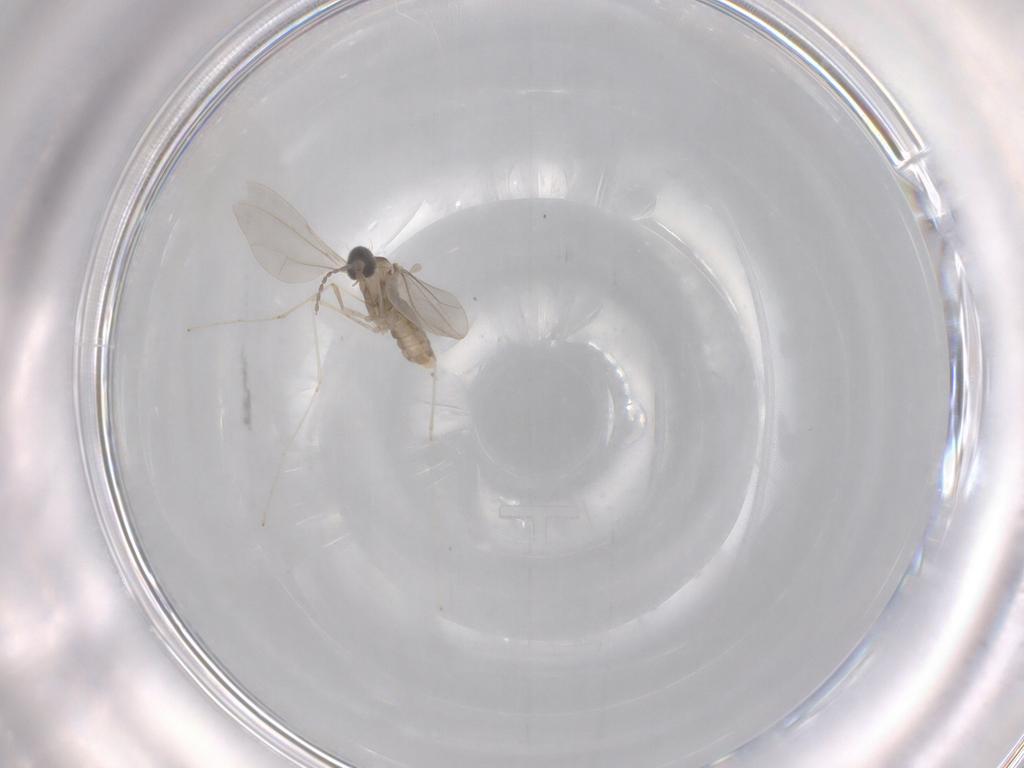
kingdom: Animalia
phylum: Arthropoda
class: Insecta
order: Diptera
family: Cecidomyiidae
